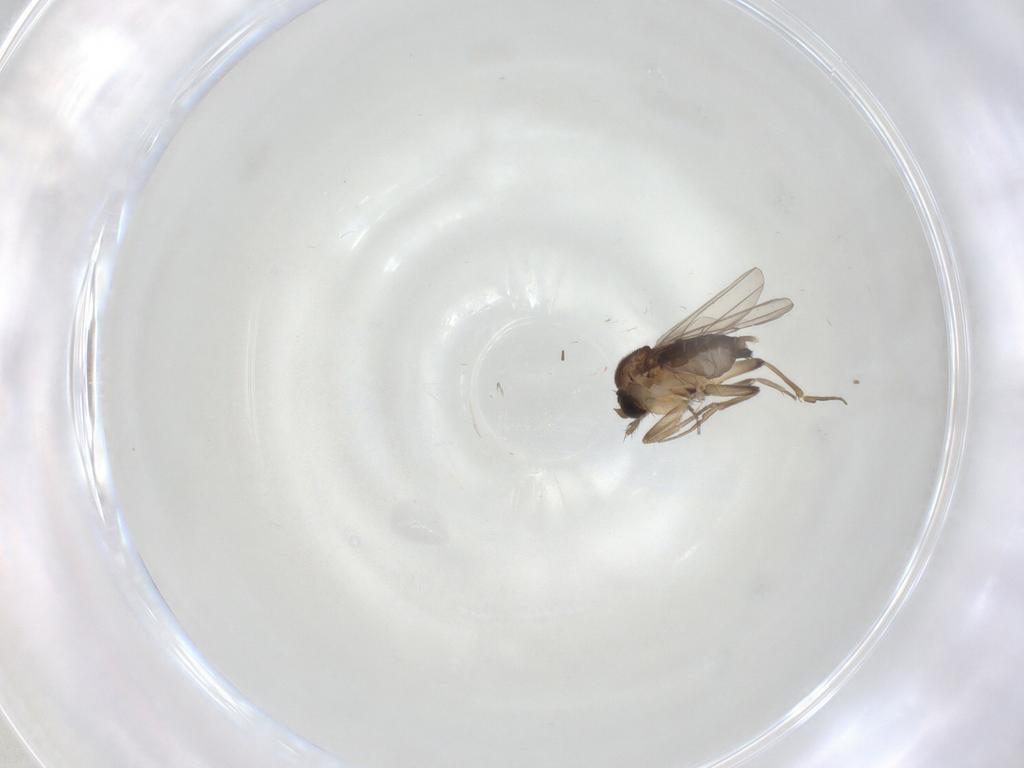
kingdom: Animalia
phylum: Arthropoda
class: Insecta
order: Diptera
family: Phoridae
